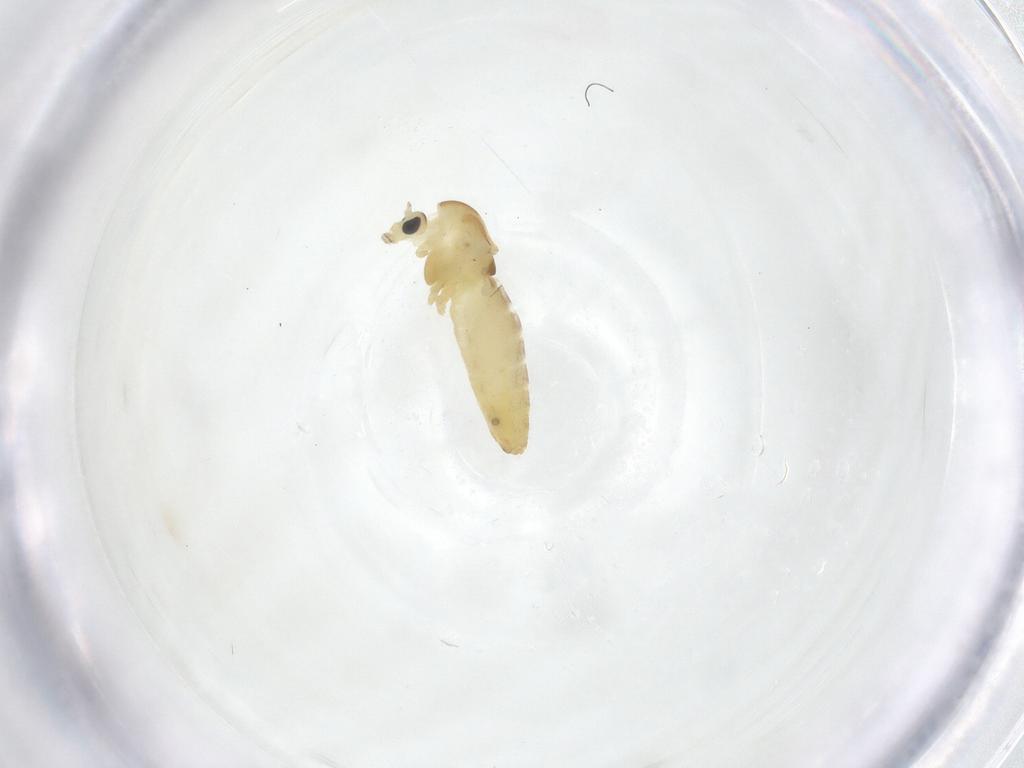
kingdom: Animalia
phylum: Arthropoda
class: Insecta
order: Diptera
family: Chironomidae
